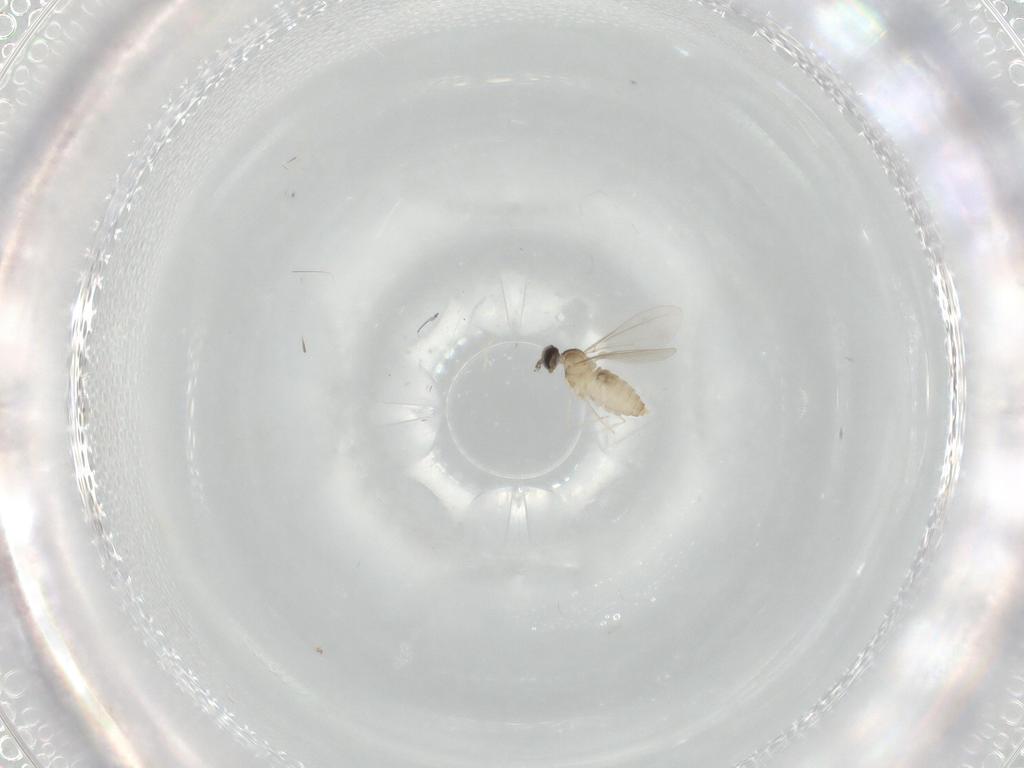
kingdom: Animalia
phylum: Arthropoda
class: Insecta
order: Diptera
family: Cecidomyiidae
